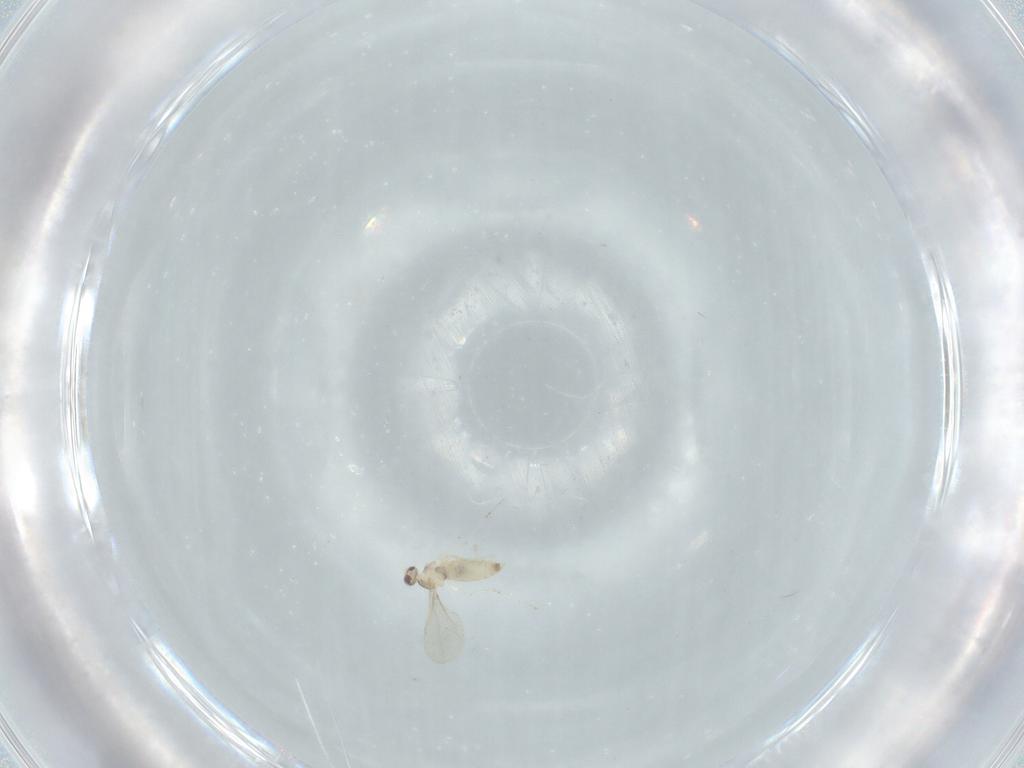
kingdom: Animalia
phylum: Arthropoda
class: Insecta
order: Diptera
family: Cecidomyiidae
